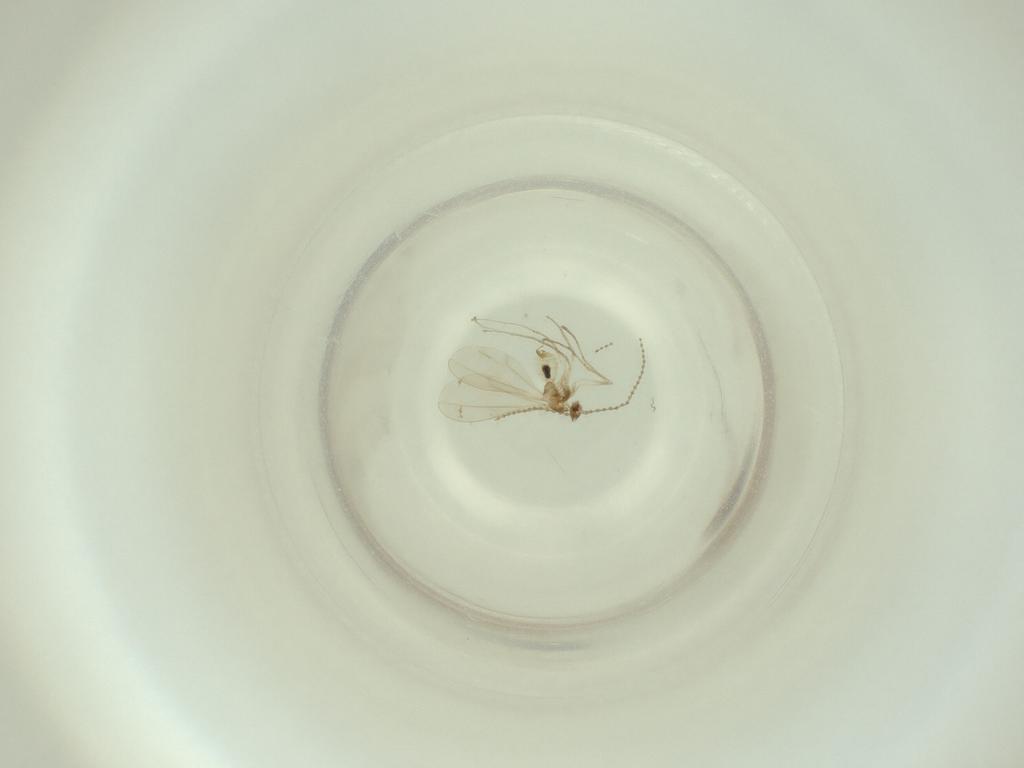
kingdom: Animalia
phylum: Arthropoda
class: Insecta
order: Diptera
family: Cecidomyiidae
